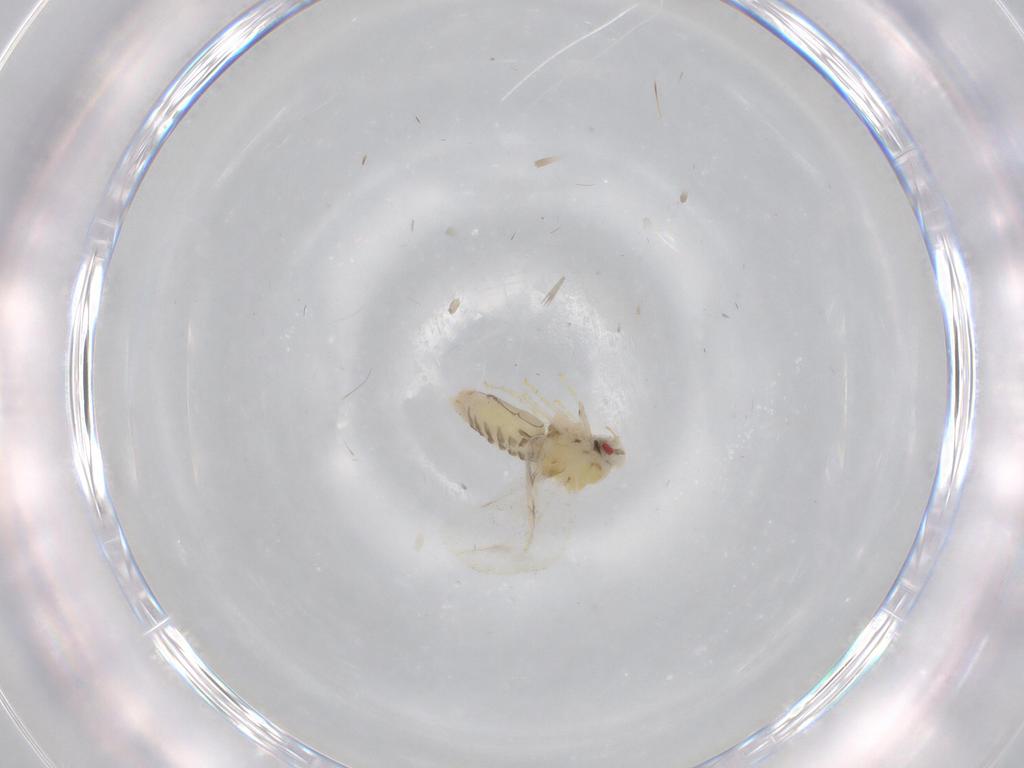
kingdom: Animalia
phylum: Arthropoda
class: Insecta
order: Hemiptera
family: Aleyrodidae
